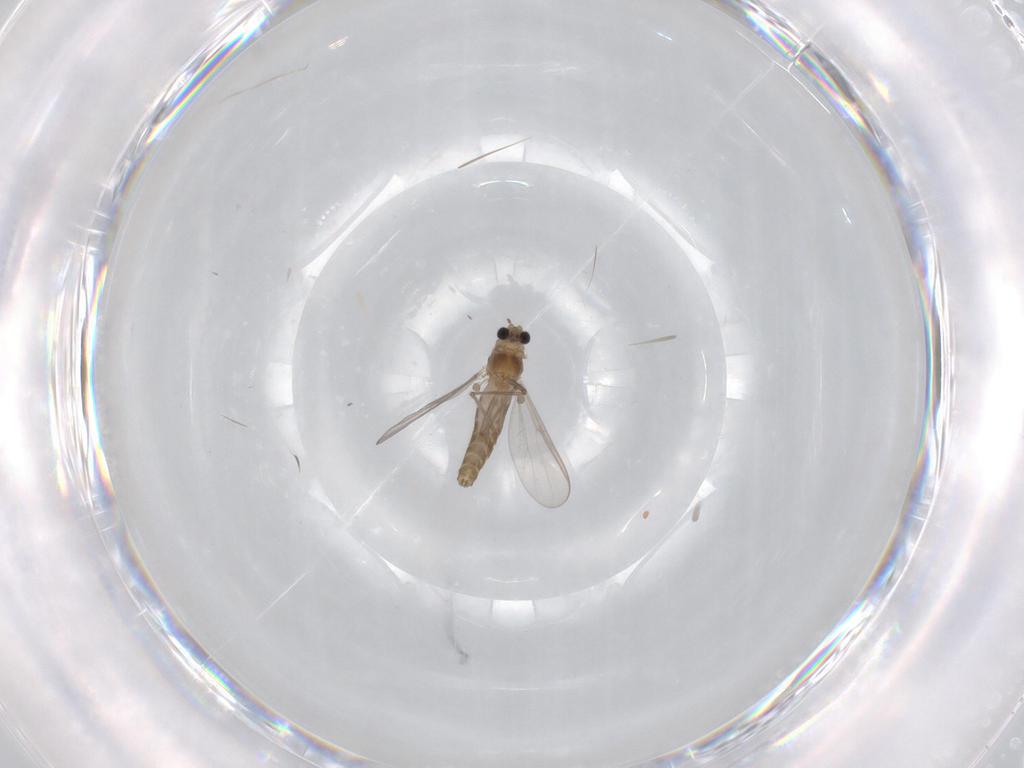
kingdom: Animalia
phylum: Arthropoda
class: Insecta
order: Diptera
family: Chironomidae
